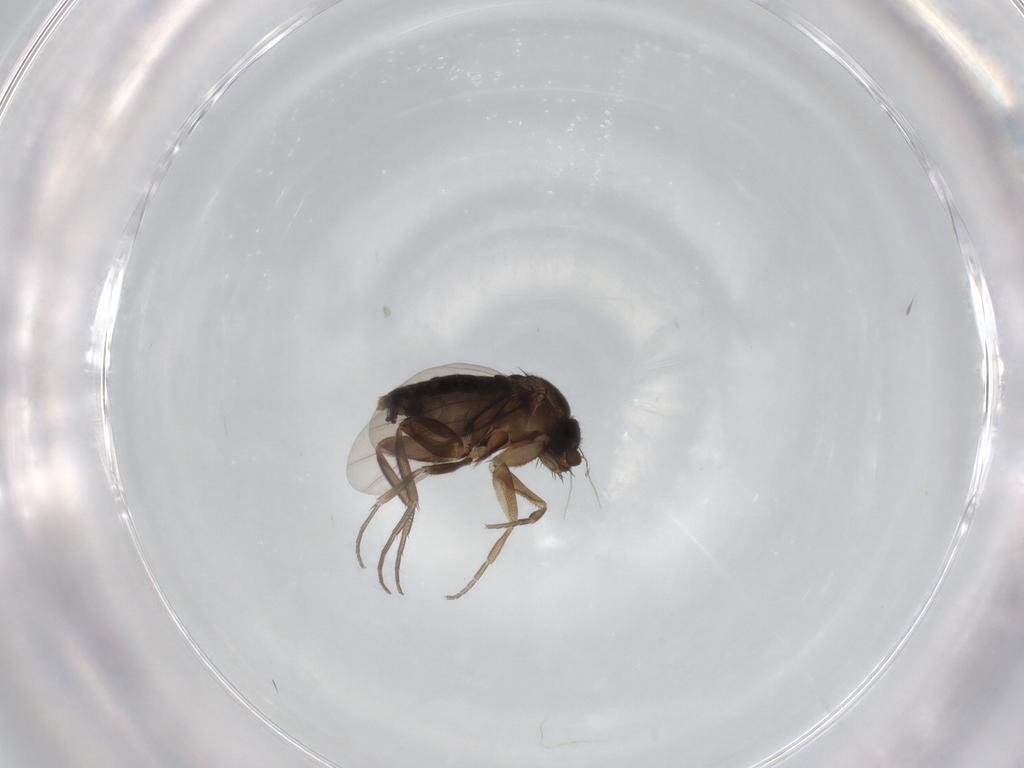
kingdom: Animalia
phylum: Arthropoda
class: Insecta
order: Diptera
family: Phoridae
